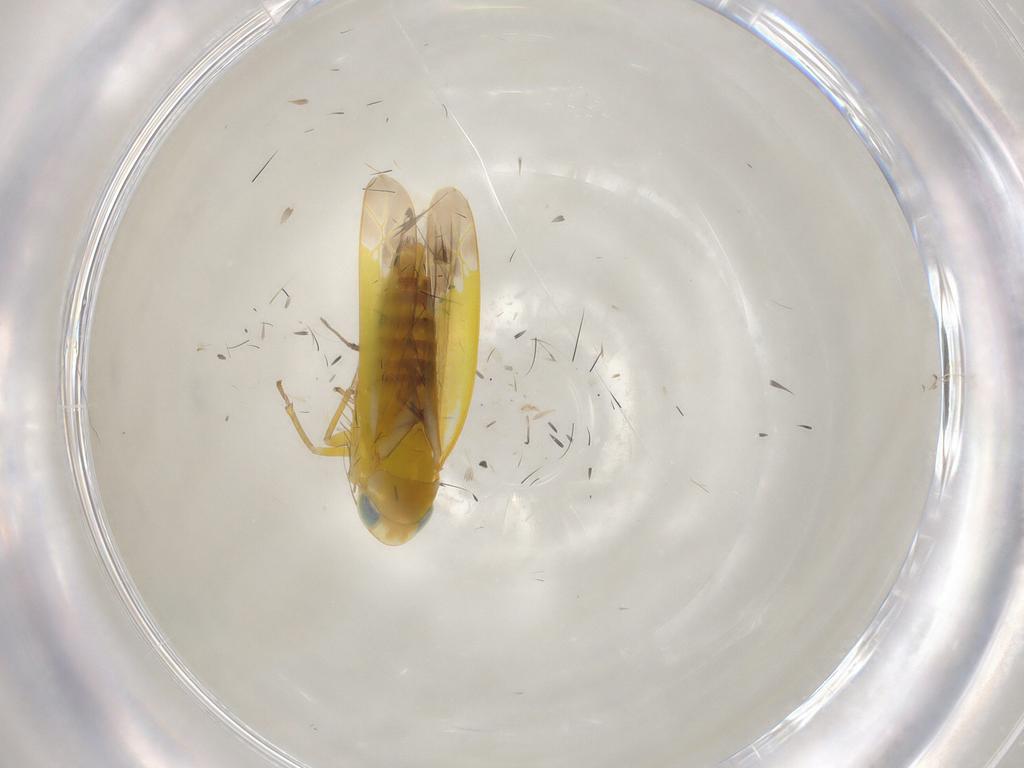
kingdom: Animalia
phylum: Arthropoda
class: Insecta
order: Hemiptera
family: Cicadellidae
